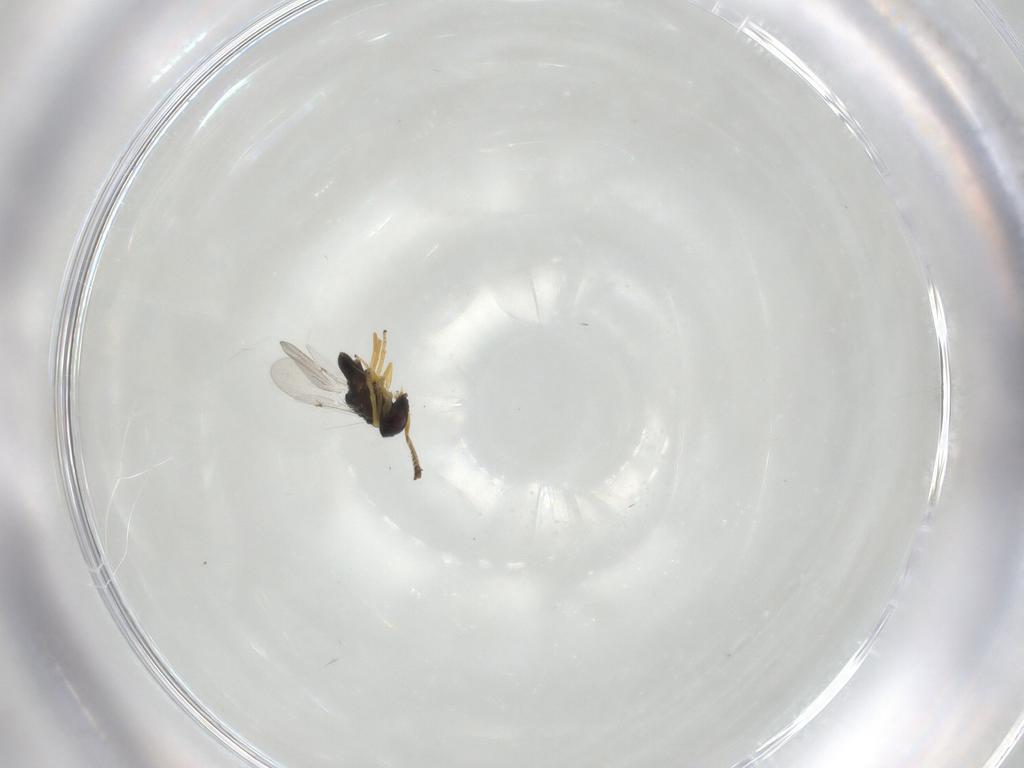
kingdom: Animalia
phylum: Arthropoda
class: Insecta
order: Hymenoptera
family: Encyrtidae
